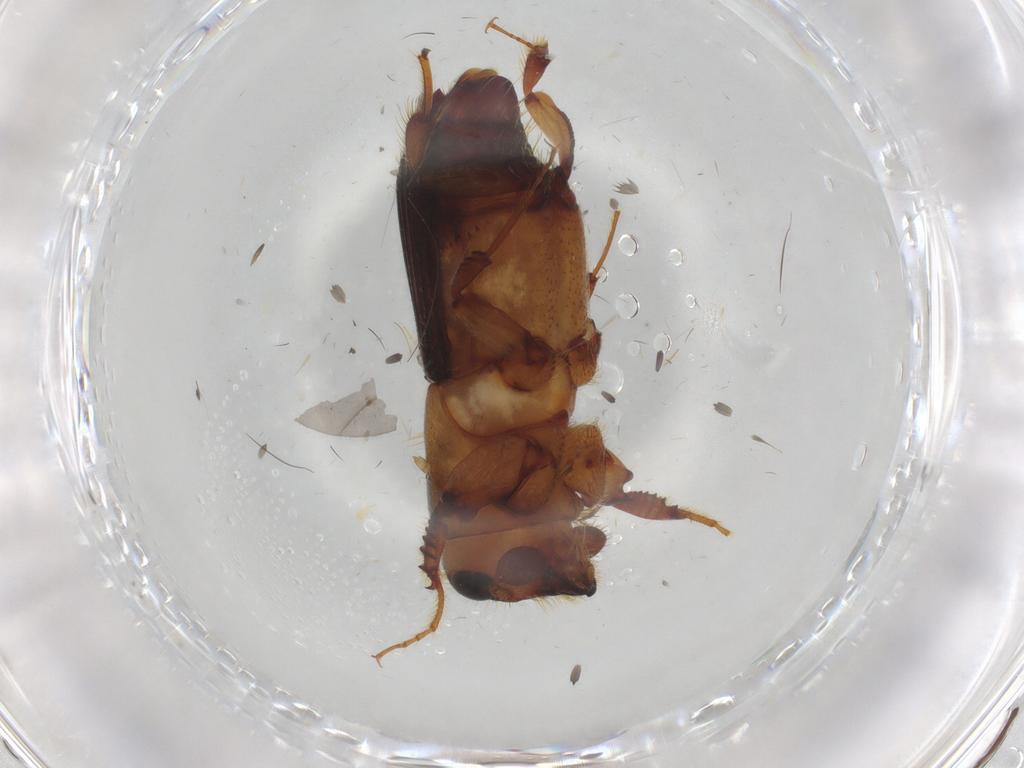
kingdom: Animalia
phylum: Arthropoda
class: Insecta
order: Coleoptera
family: Curculionidae
